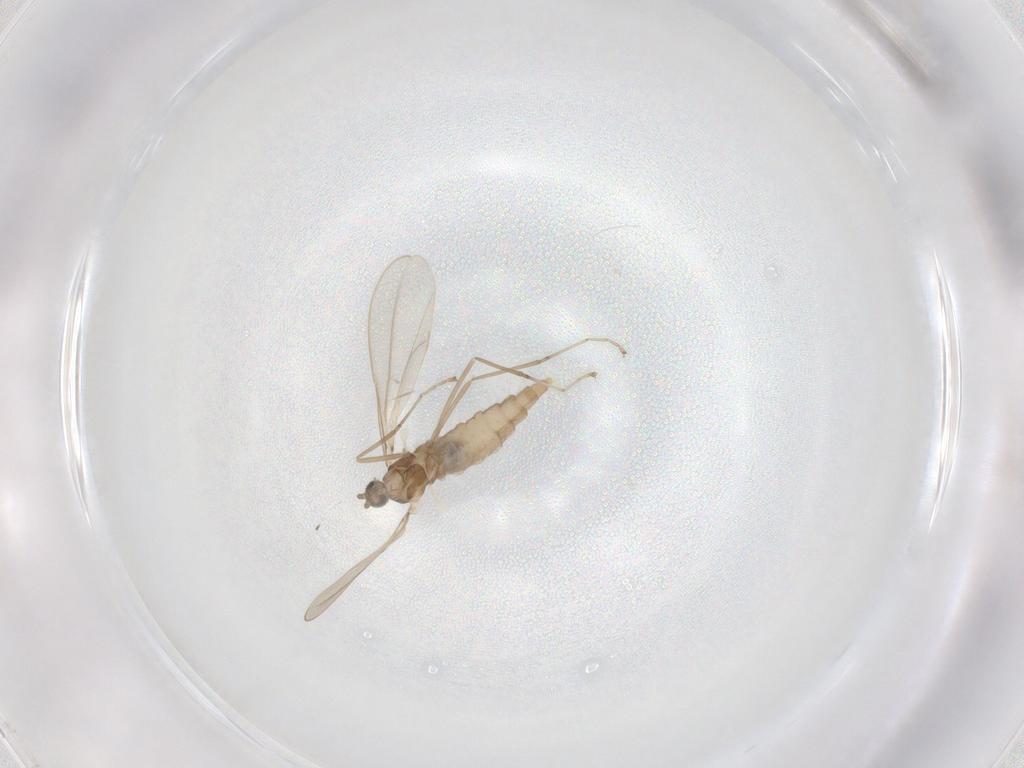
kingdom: Animalia
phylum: Arthropoda
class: Insecta
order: Diptera
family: Cecidomyiidae
